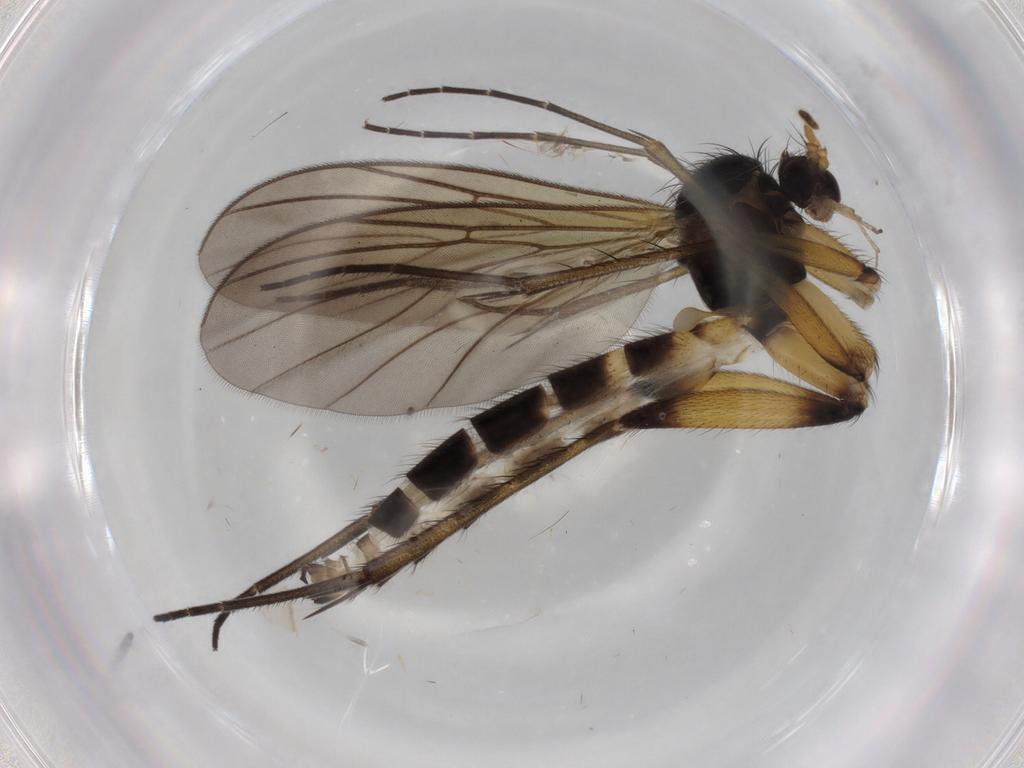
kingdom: Animalia
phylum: Arthropoda
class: Insecta
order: Diptera
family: Mycetophilidae
